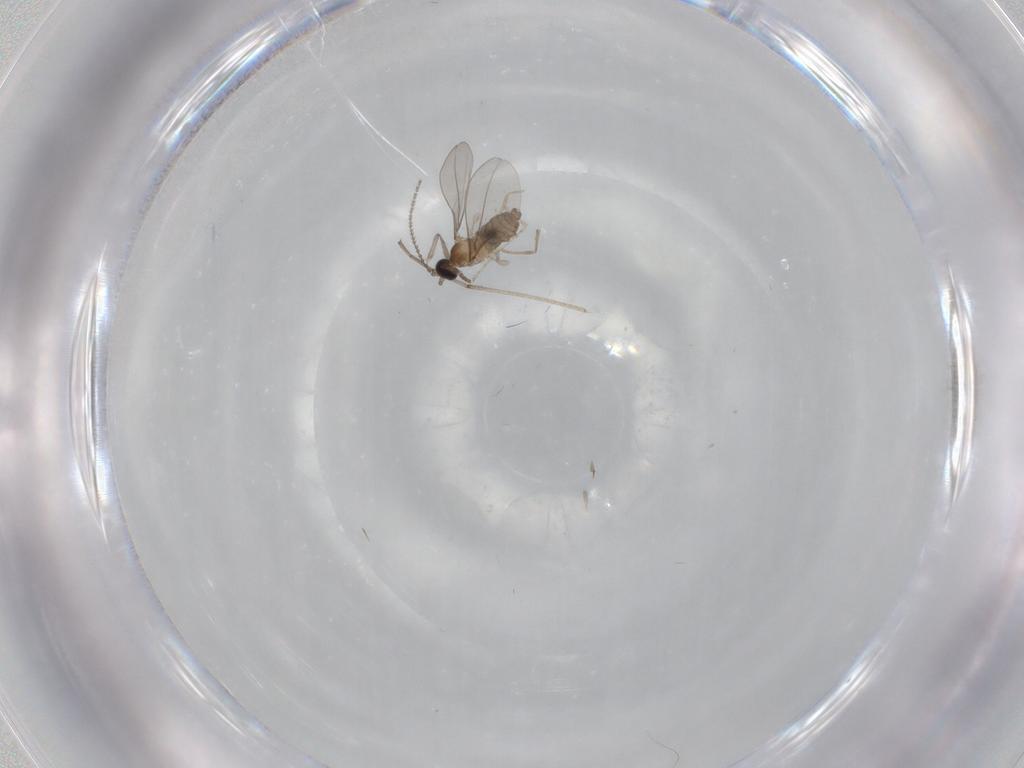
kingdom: Animalia
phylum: Arthropoda
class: Insecta
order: Diptera
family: Cecidomyiidae
